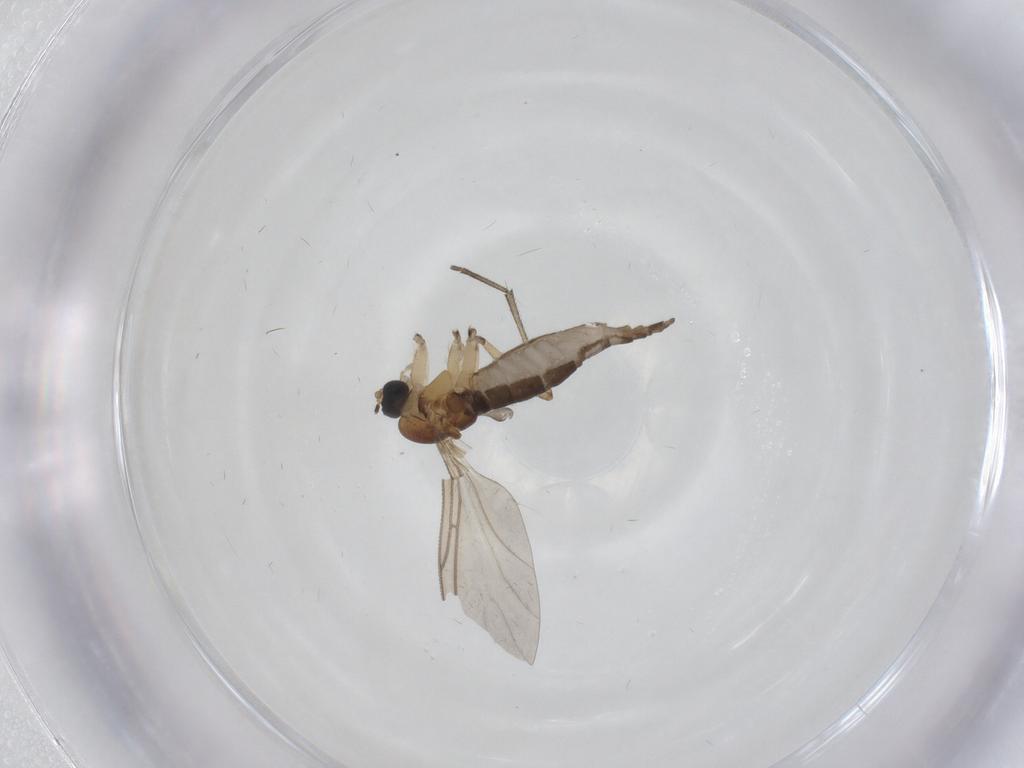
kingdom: Animalia
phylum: Arthropoda
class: Insecta
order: Diptera
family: Sciaridae
